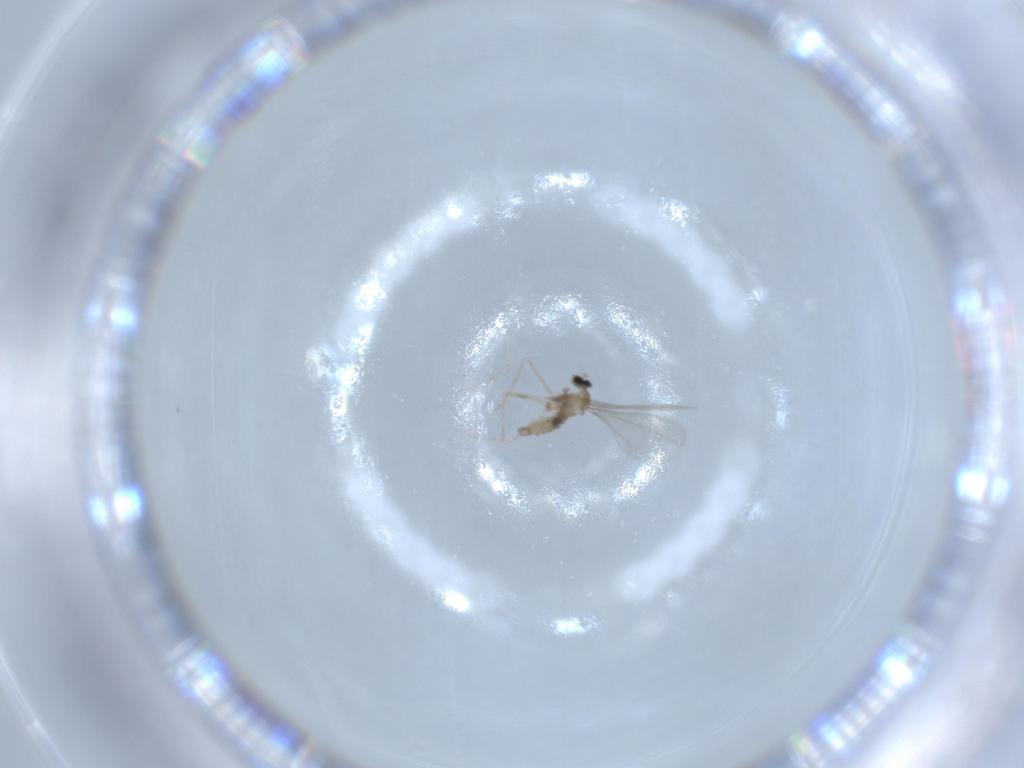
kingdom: Animalia
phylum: Arthropoda
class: Insecta
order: Diptera
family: Cecidomyiidae
